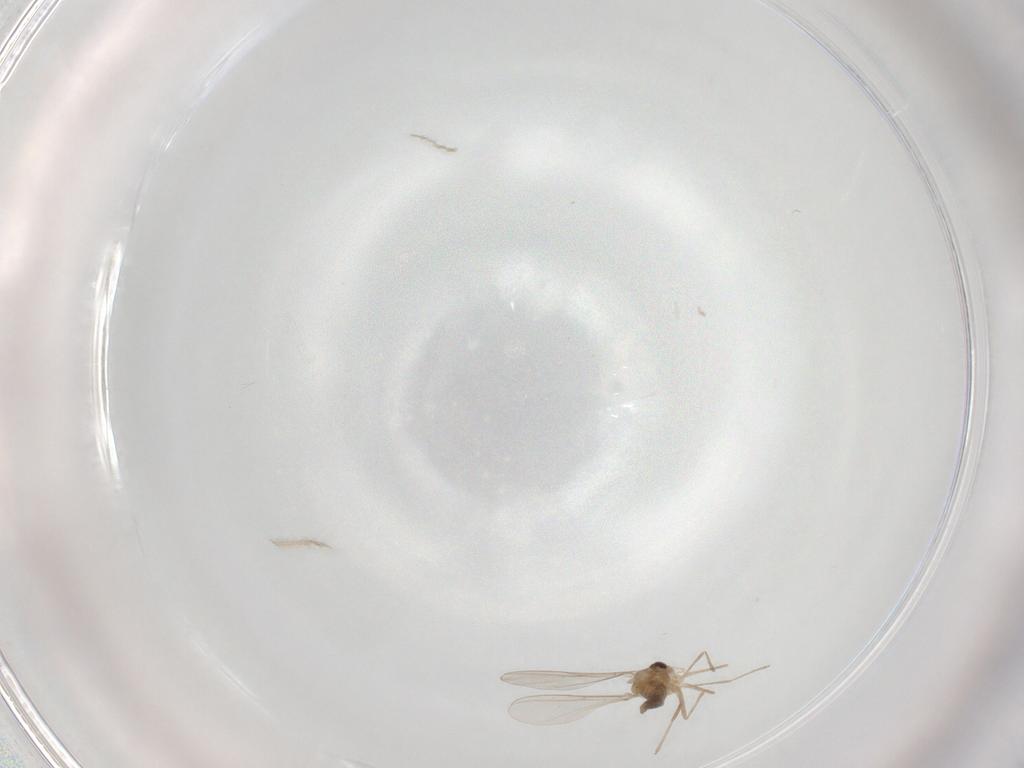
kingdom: Animalia
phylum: Arthropoda
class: Insecta
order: Diptera
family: Cecidomyiidae
